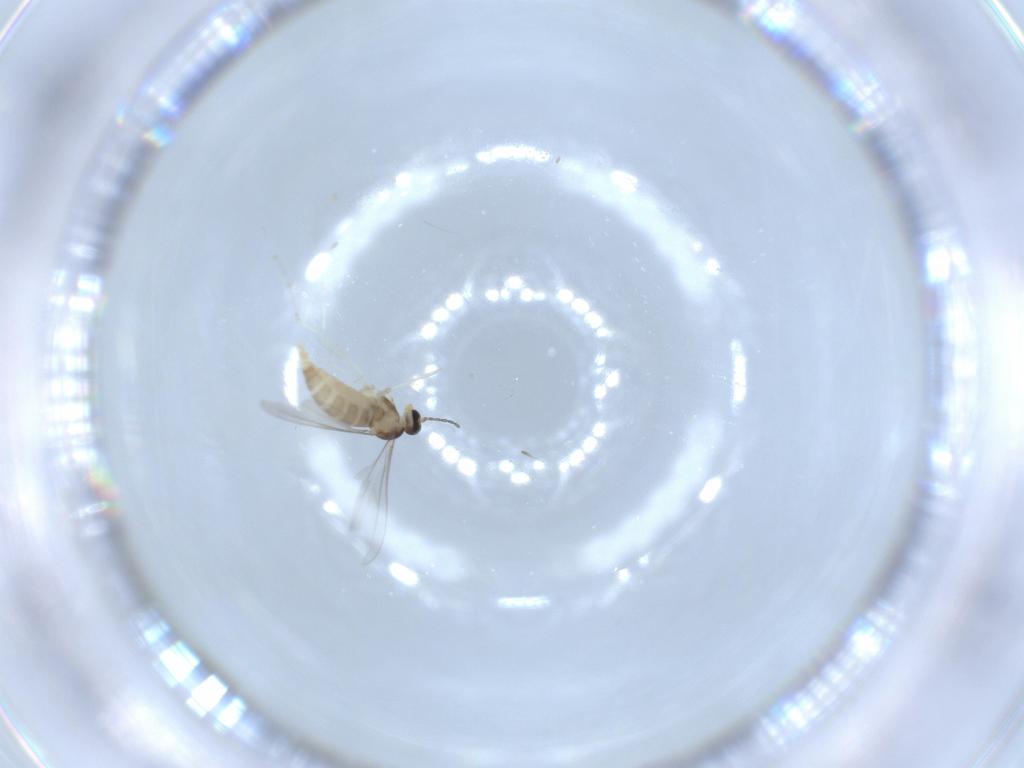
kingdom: Animalia
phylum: Arthropoda
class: Insecta
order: Diptera
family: Cecidomyiidae
